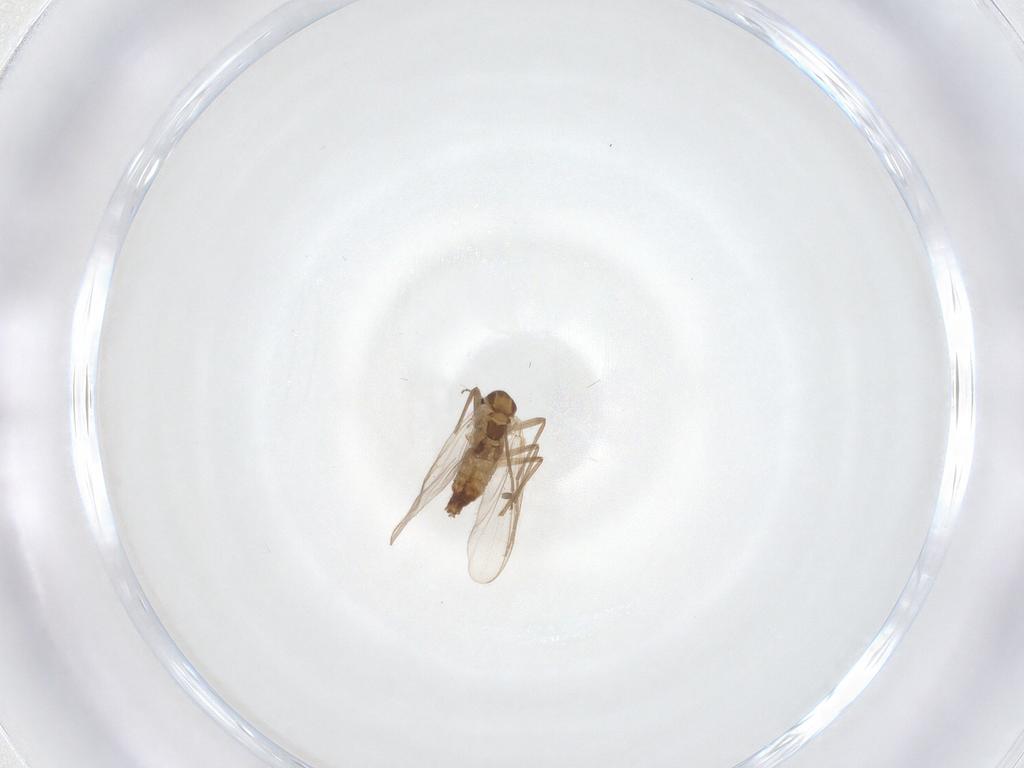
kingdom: Animalia
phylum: Arthropoda
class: Insecta
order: Diptera
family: Chironomidae
